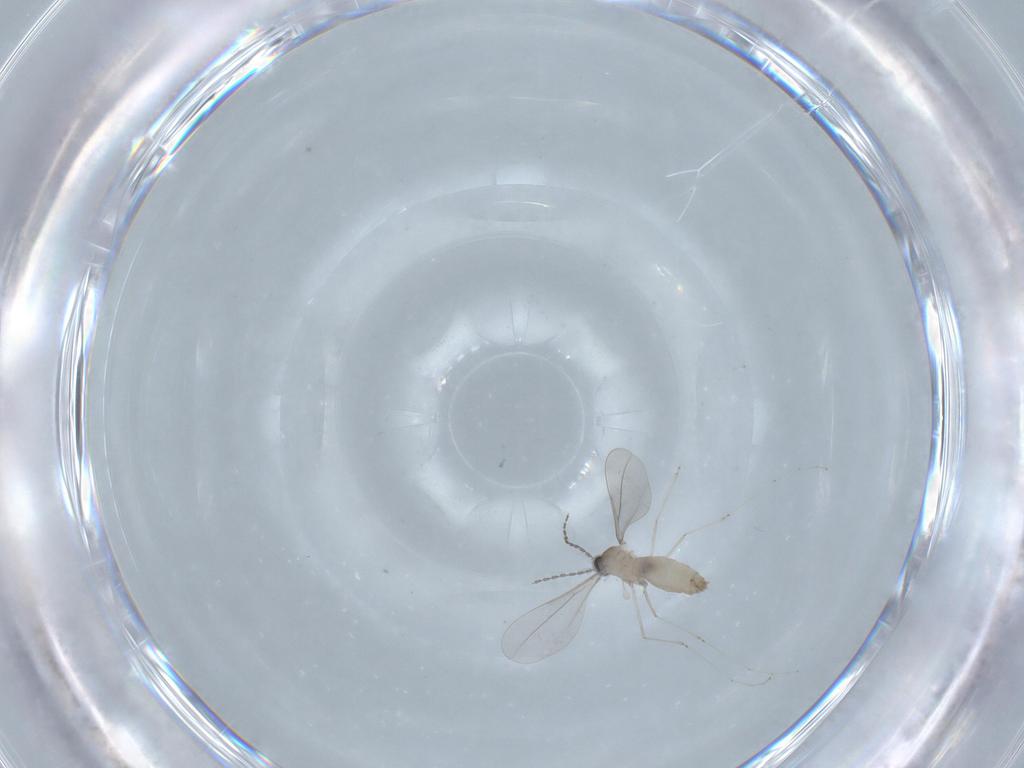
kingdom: Animalia
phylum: Arthropoda
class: Insecta
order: Diptera
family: Cecidomyiidae
